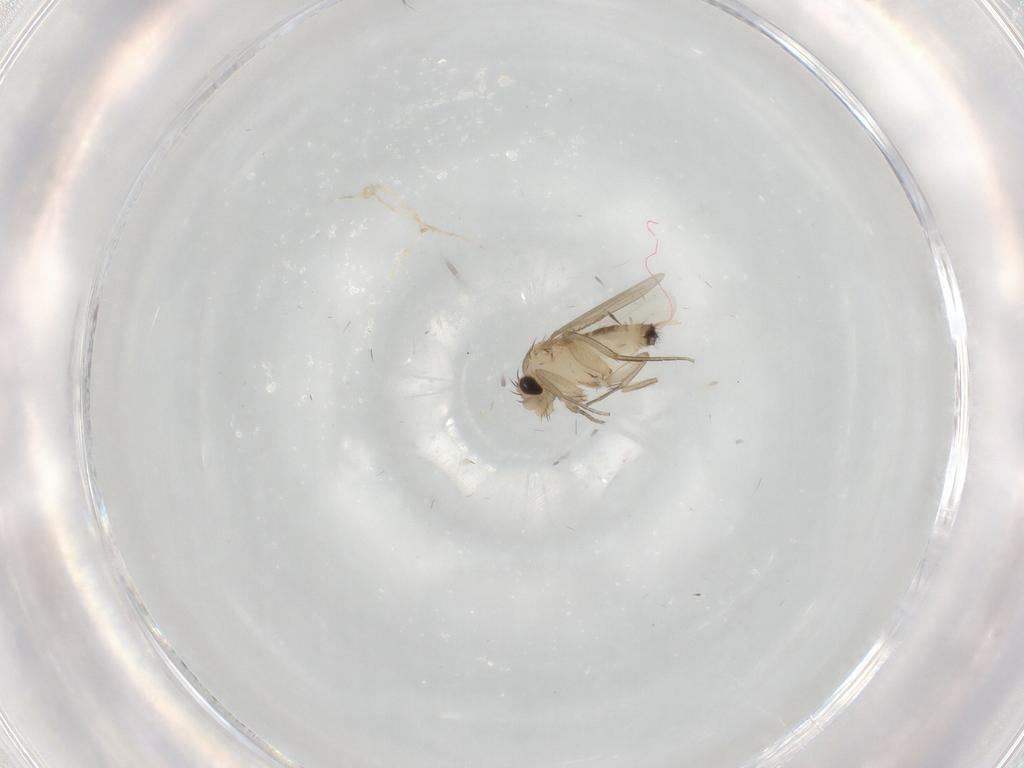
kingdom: Animalia
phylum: Arthropoda
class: Insecta
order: Diptera
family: Phoridae
